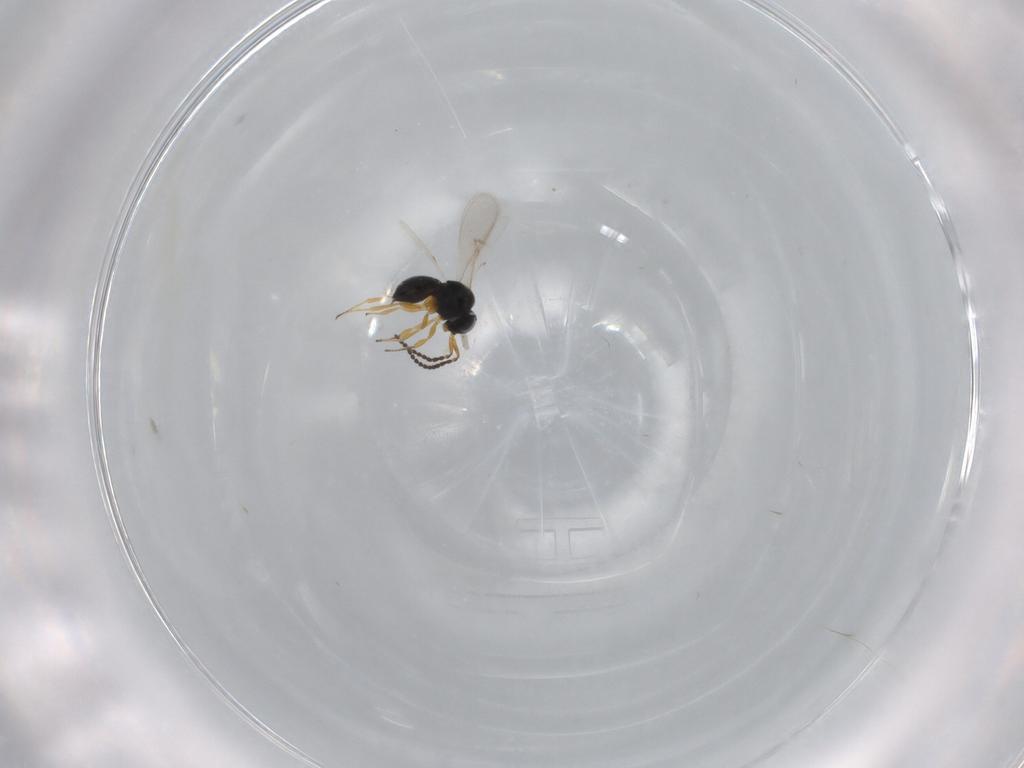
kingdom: Animalia
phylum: Arthropoda
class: Insecta
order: Hymenoptera
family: Scelionidae
